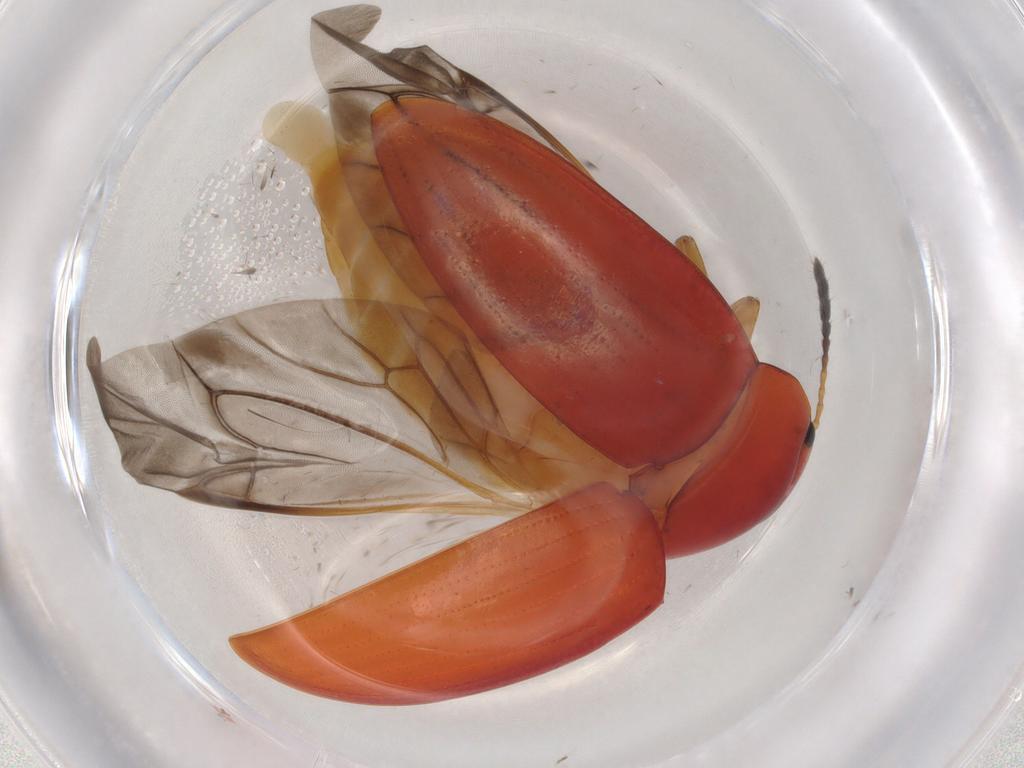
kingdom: Animalia
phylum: Arthropoda
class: Insecta
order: Coleoptera
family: Erotylidae
